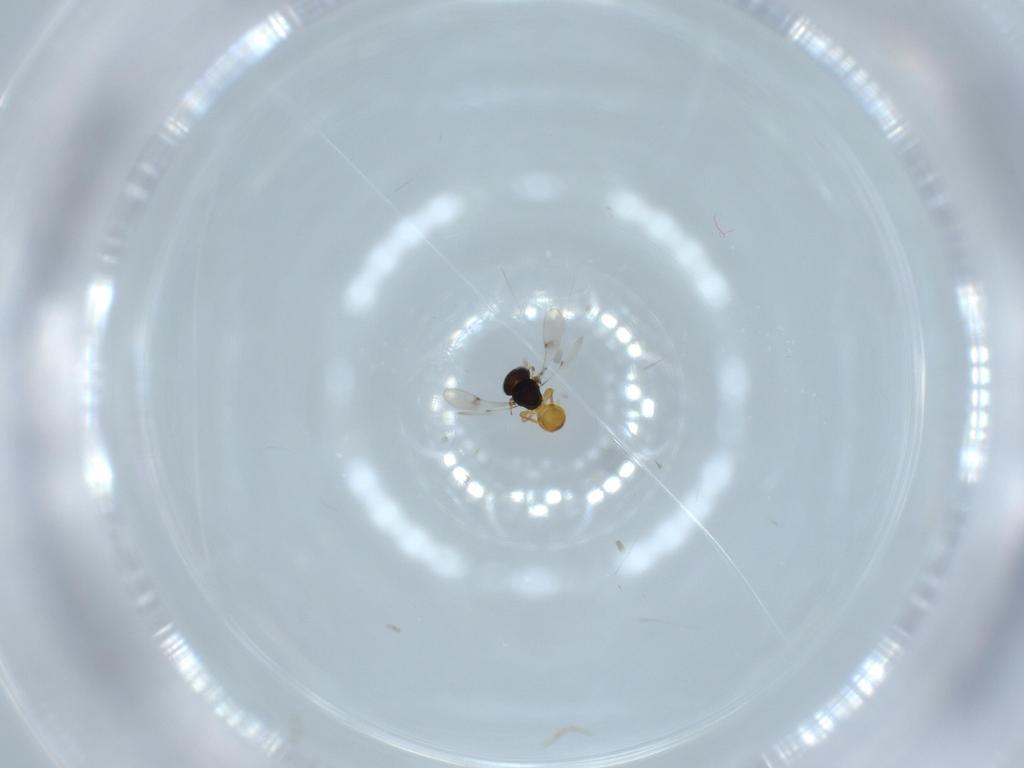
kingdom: Animalia
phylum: Arthropoda
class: Insecta
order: Hymenoptera
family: Scelionidae
